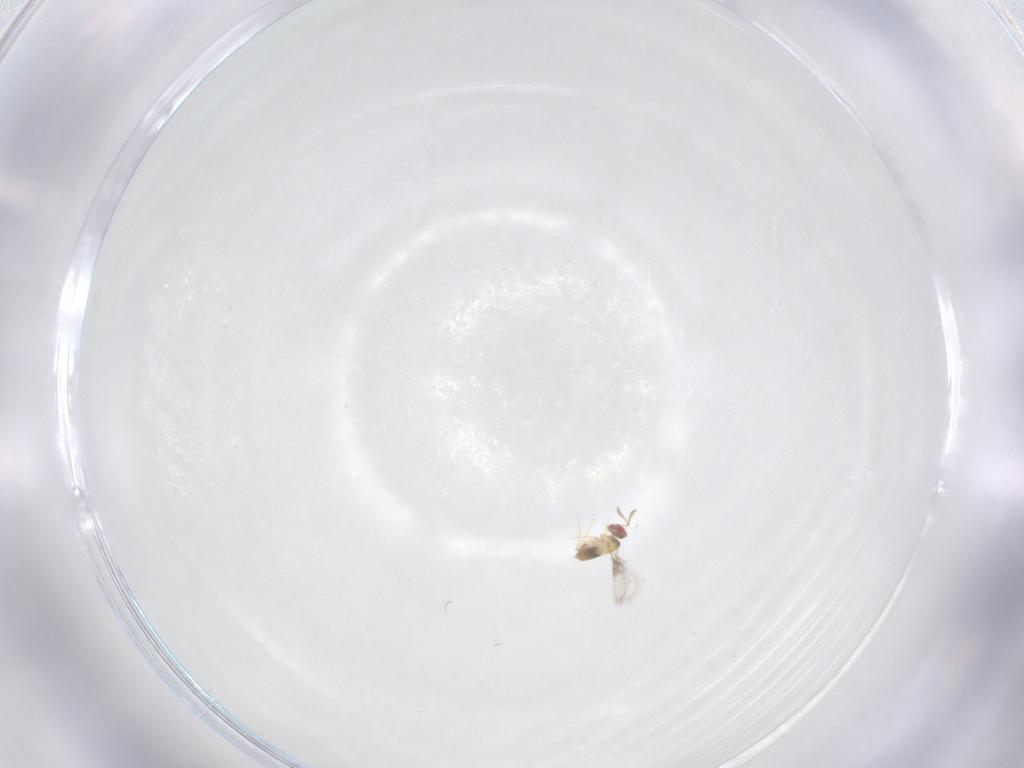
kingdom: Animalia
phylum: Arthropoda
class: Insecta
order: Hymenoptera
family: Trichogrammatidae
